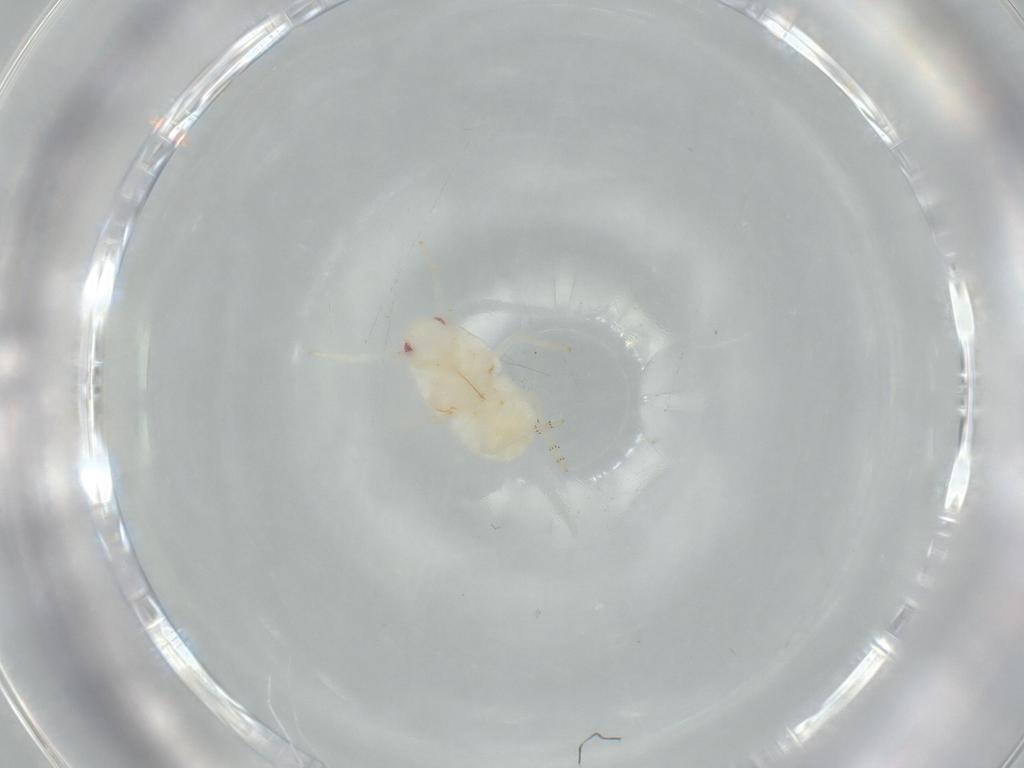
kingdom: Animalia
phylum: Arthropoda
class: Insecta
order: Hemiptera
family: Flatidae
